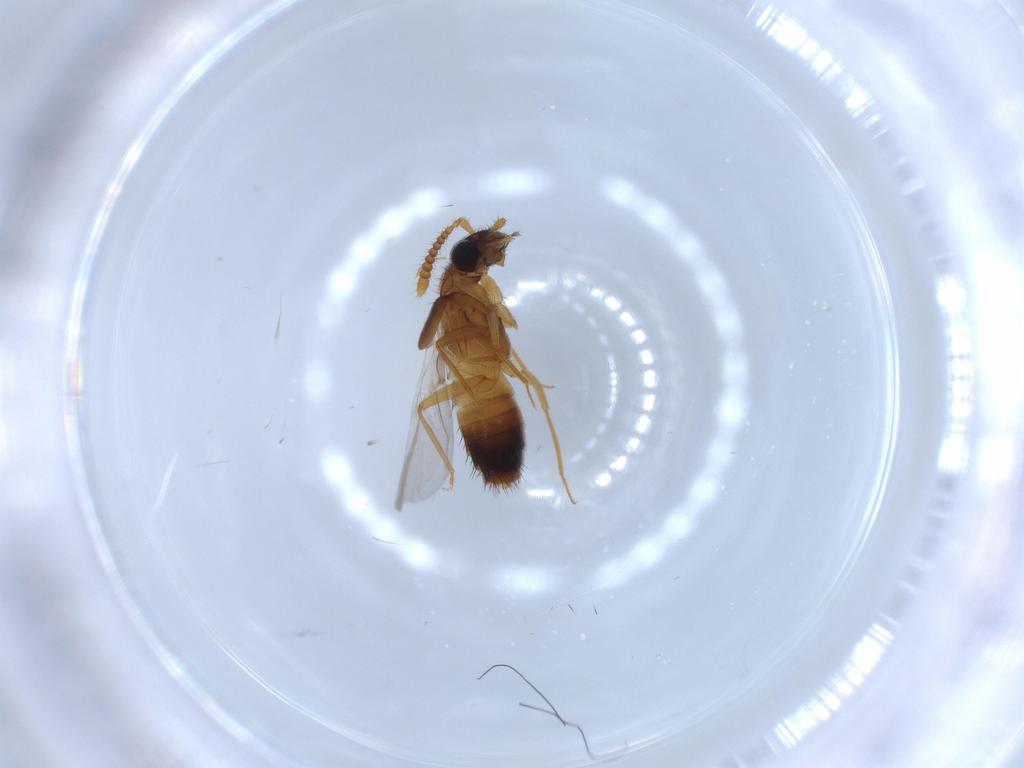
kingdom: Animalia
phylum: Arthropoda
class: Insecta
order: Coleoptera
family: Staphylinidae
